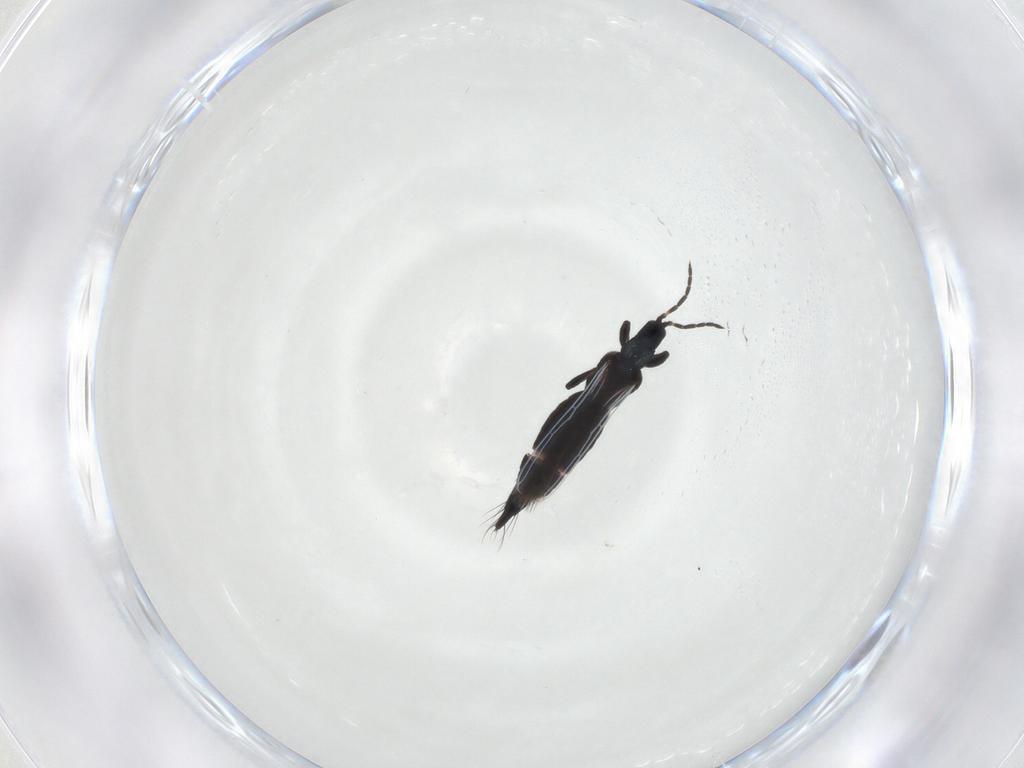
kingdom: Animalia
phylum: Arthropoda
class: Insecta
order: Thysanoptera
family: Aeolothripidae
